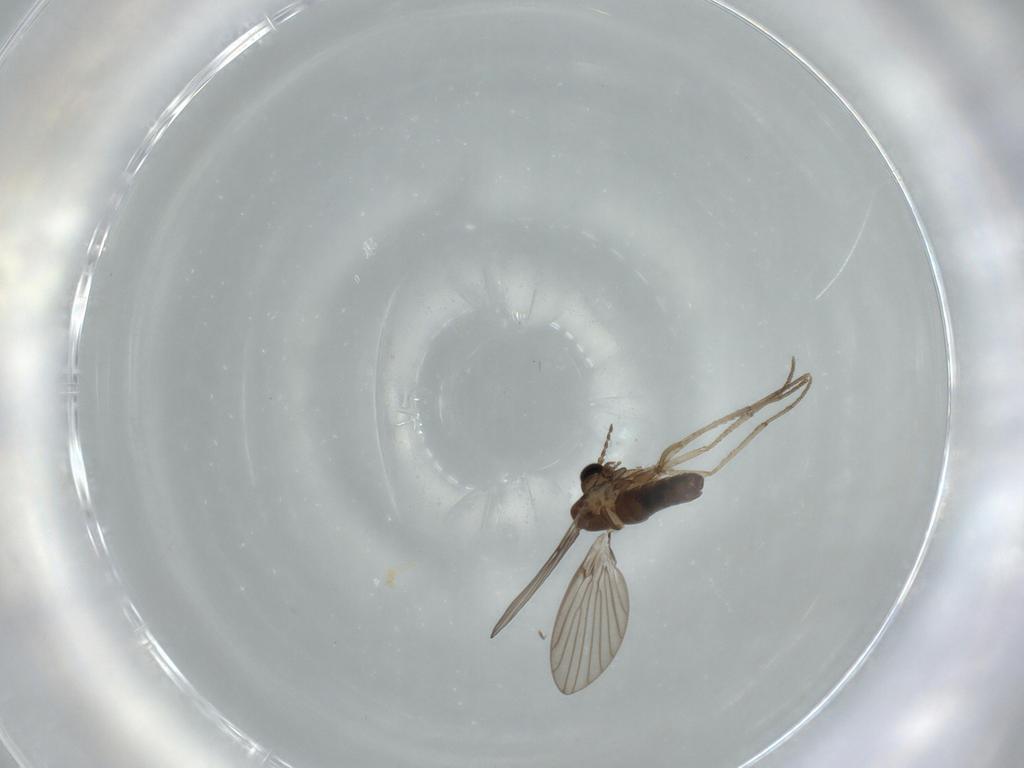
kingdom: Animalia
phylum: Arthropoda
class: Insecta
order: Diptera
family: Psychodidae
